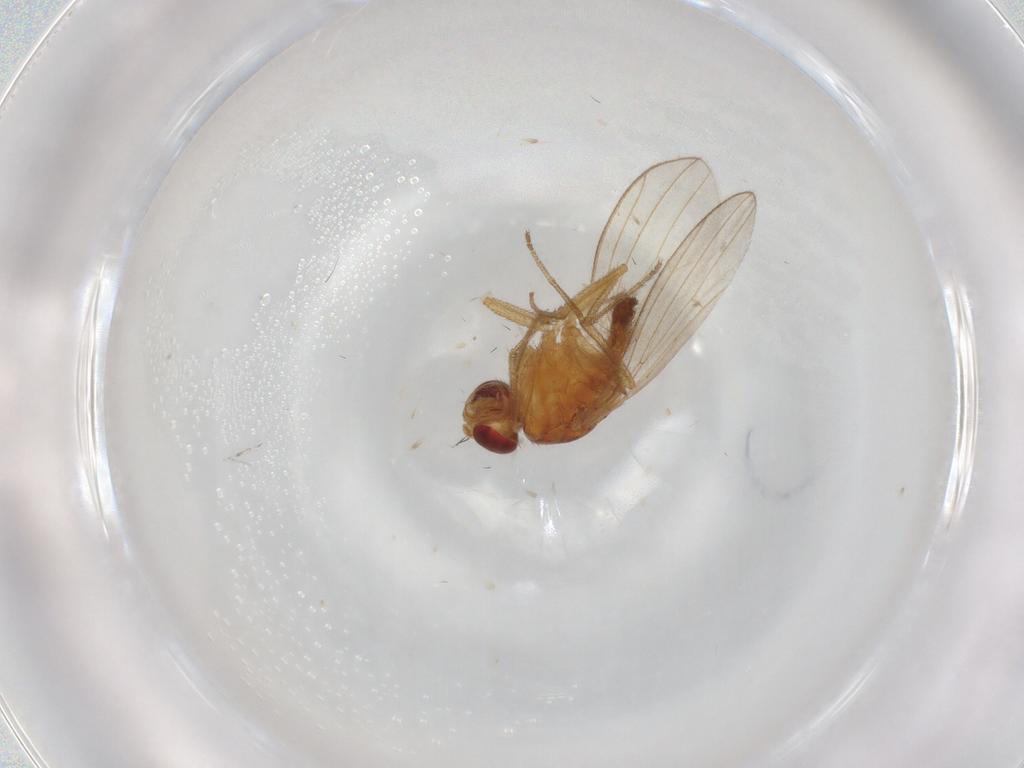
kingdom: Animalia
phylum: Arthropoda
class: Insecta
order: Diptera
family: Drosophilidae
